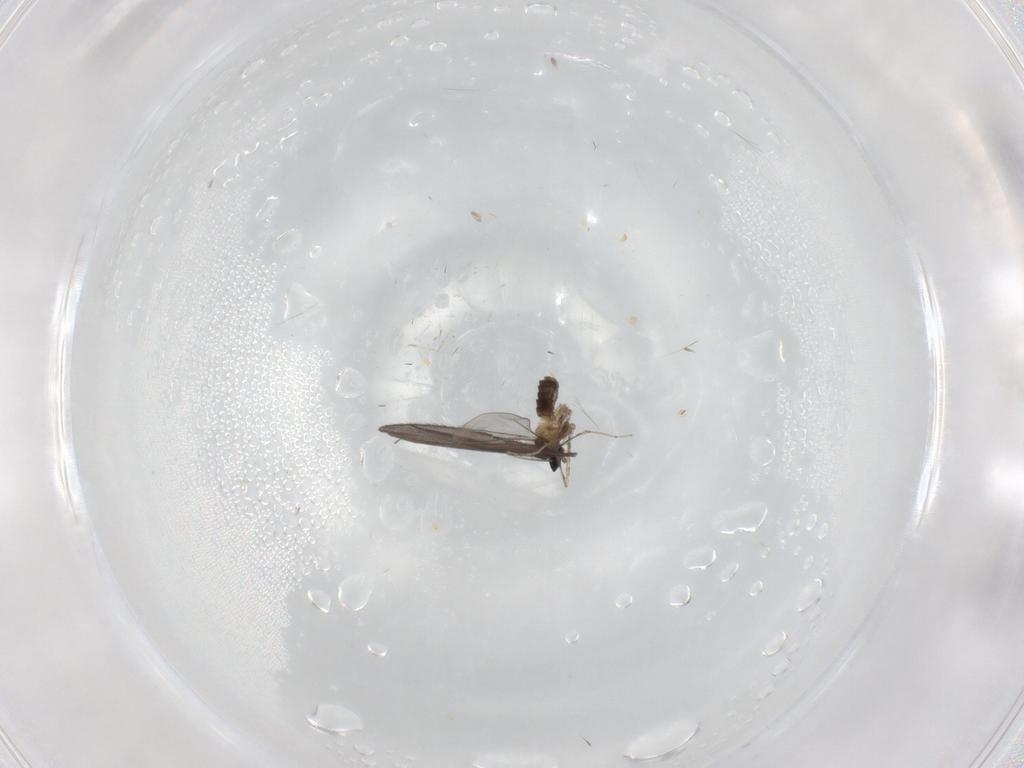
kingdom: Animalia
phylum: Arthropoda
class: Insecta
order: Diptera
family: Cecidomyiidae
